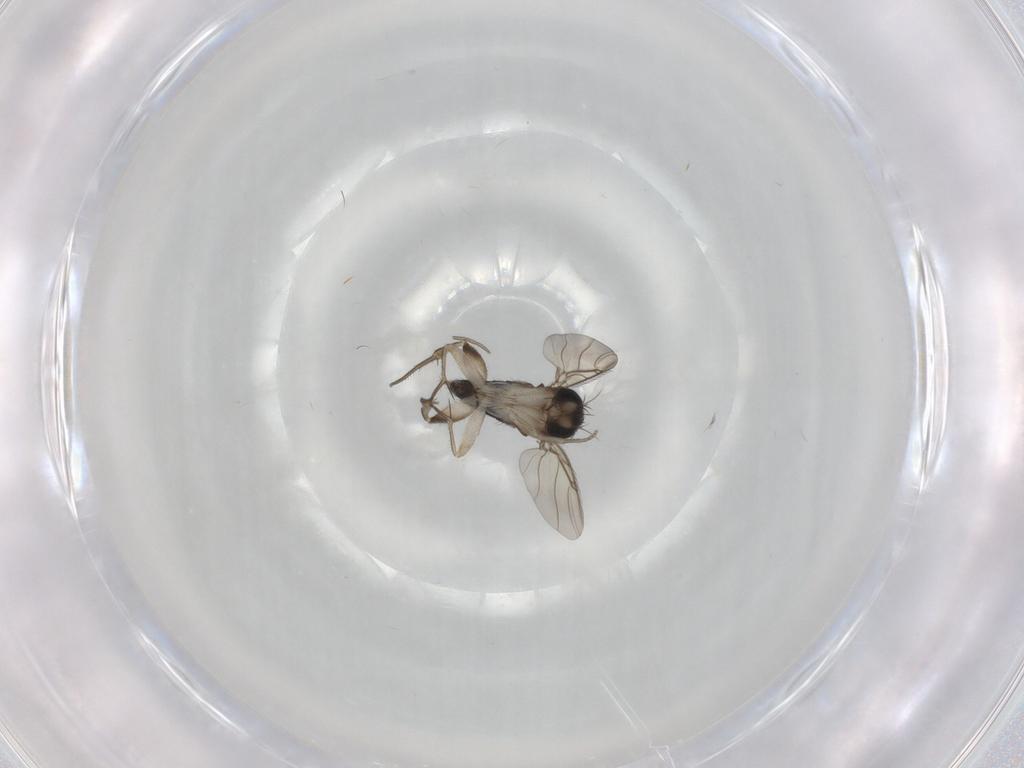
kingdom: Animalia
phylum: Arthropoda
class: Insecta
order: Diptera
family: Phoridae
